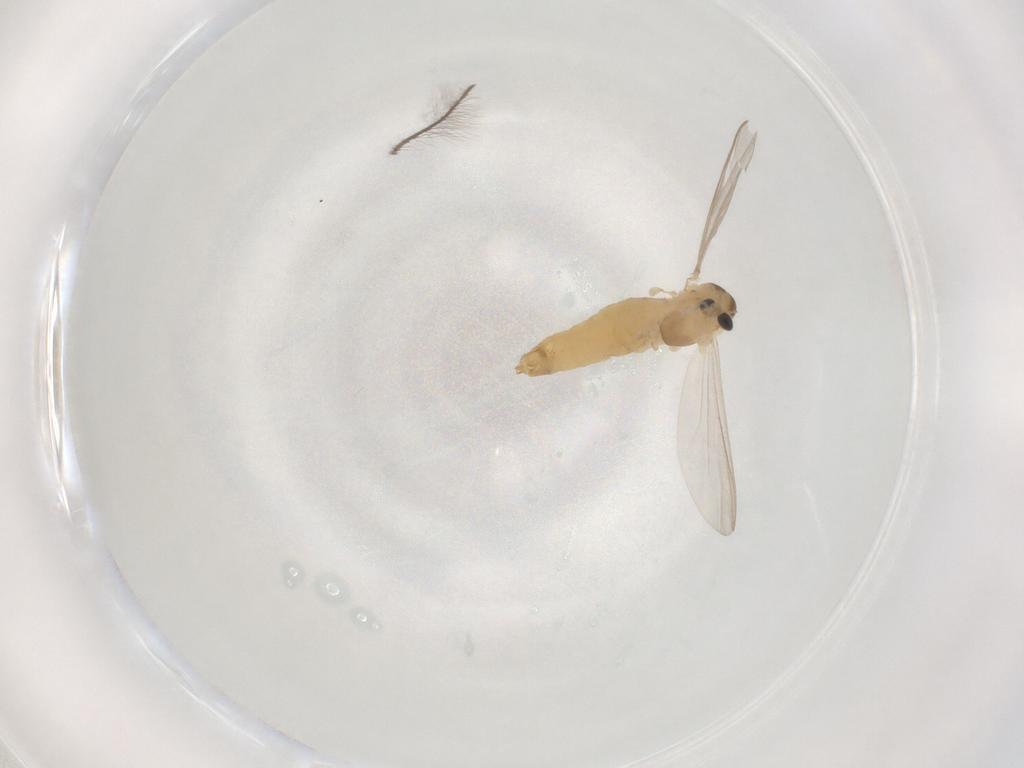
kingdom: Animalia
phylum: Arthropoda
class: Insecta
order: Diptera
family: Chironomidae
